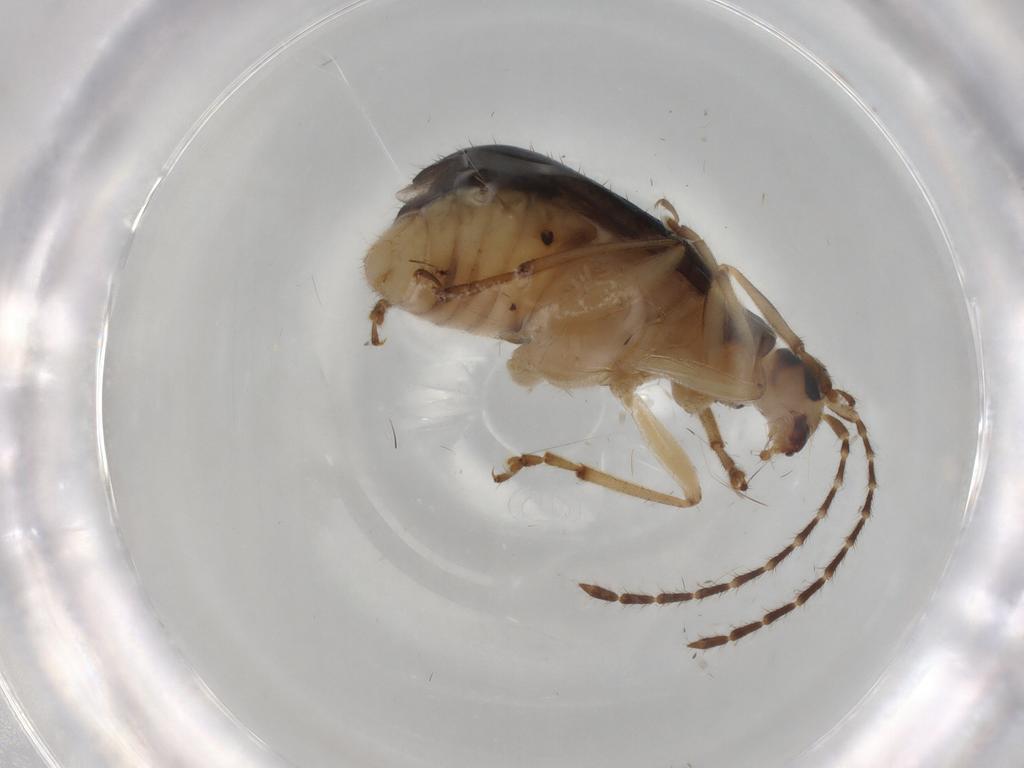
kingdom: Animalia
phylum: Arthropoda
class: Insecta
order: Coleoptera
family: Chrysomelidae
